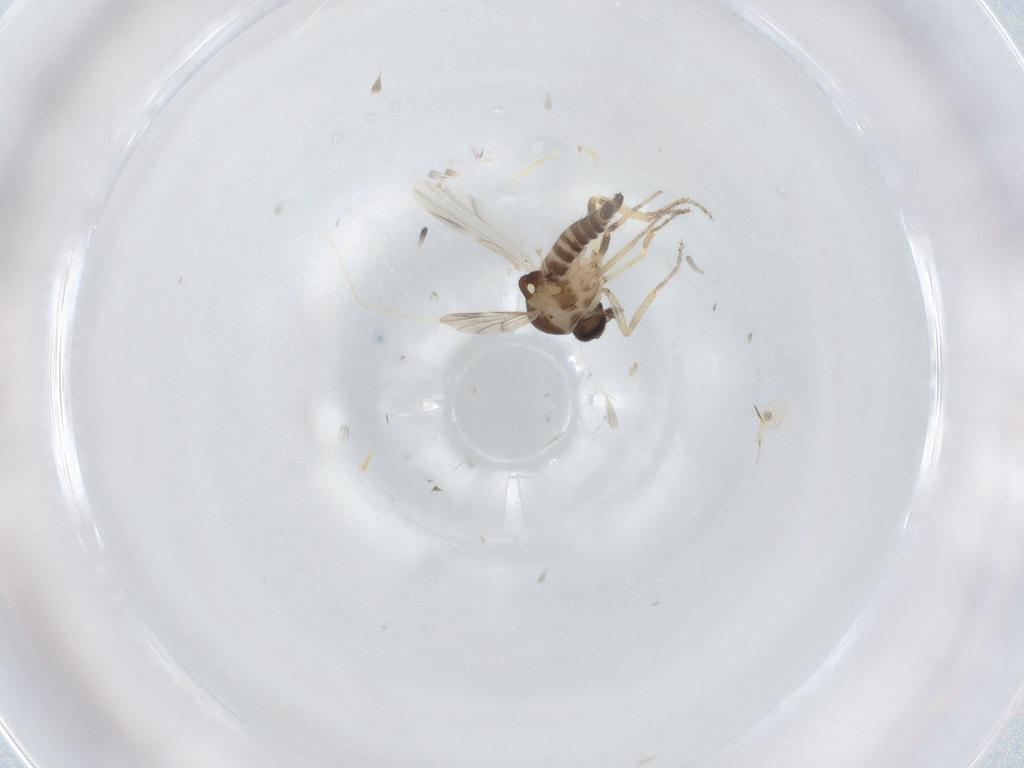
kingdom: Animalia
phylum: Arthropoda
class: Insecta
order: Diptera
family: Ceratopogonidae
